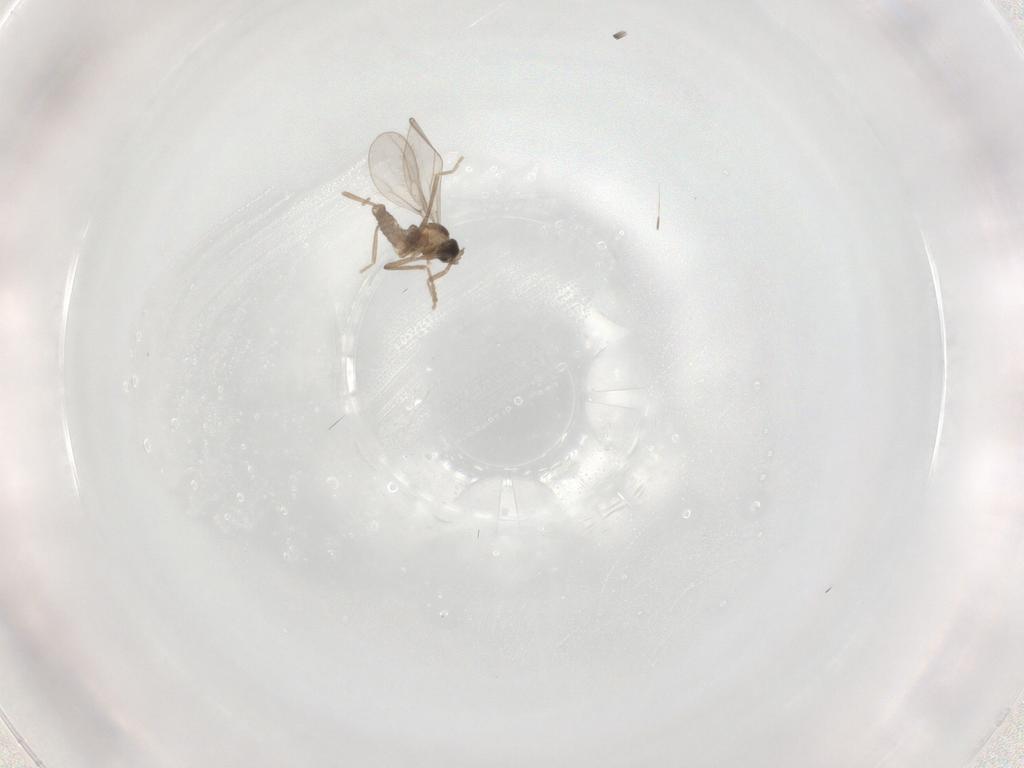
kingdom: Animalia
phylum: Arthropoda
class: Insecta
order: Diptera
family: Cecidomyiidae
